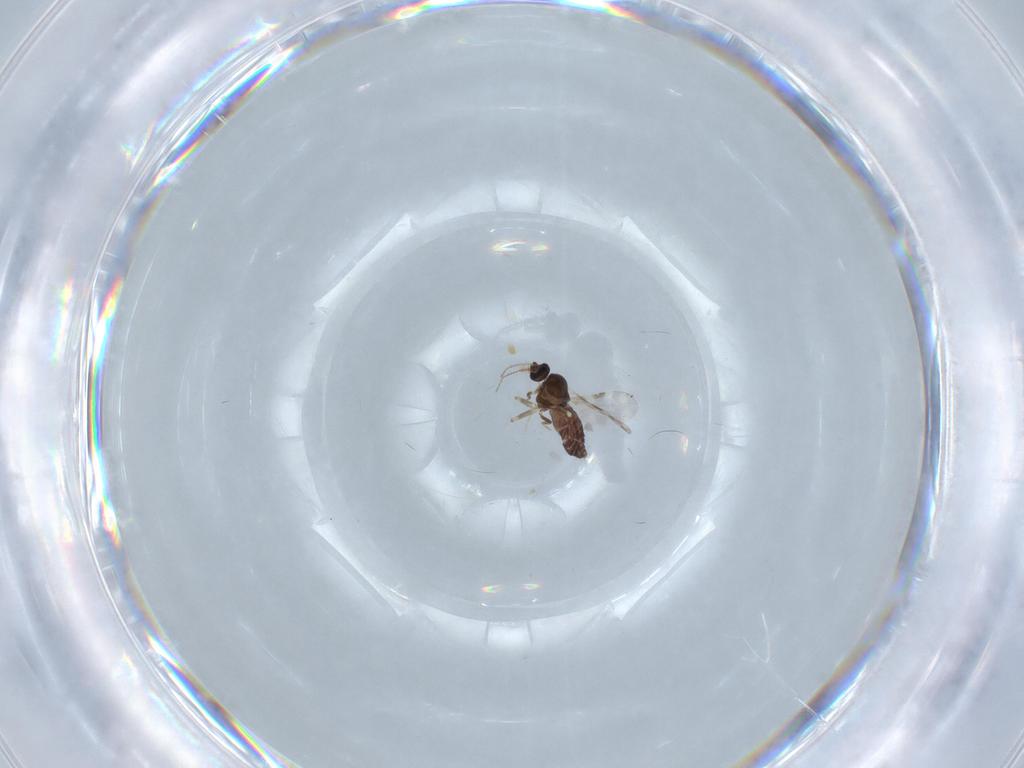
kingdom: Animalia
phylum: Arthropoda
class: Insecta
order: Diptera
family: Ceratopogonidae
